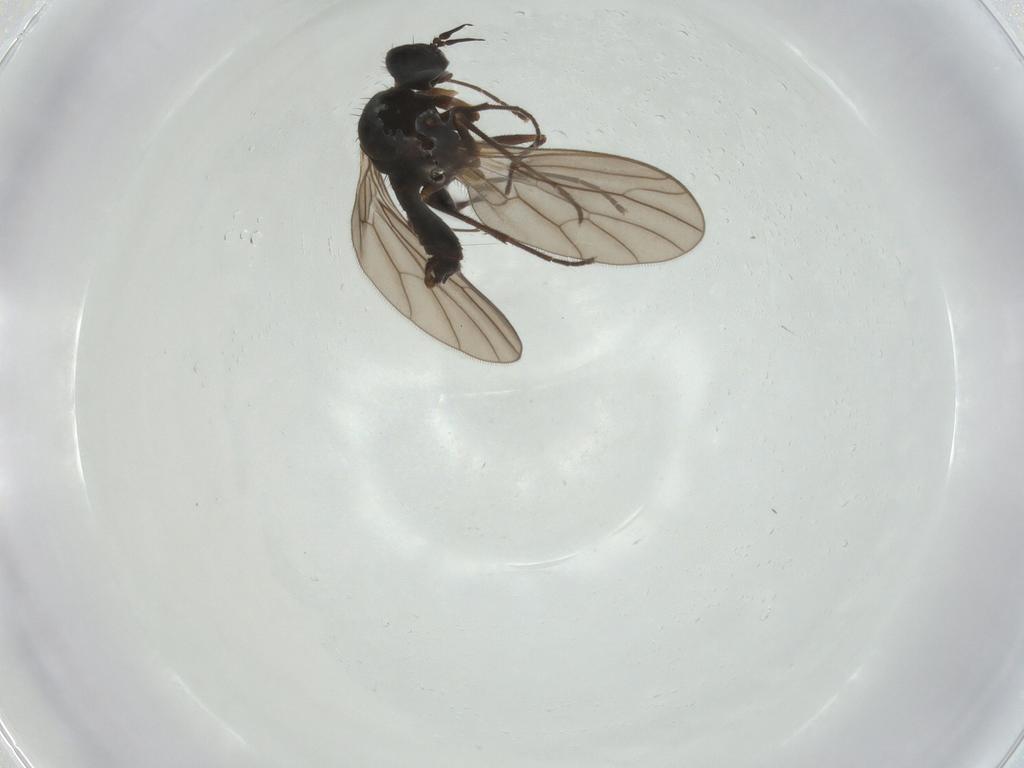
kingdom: Animalia
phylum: Arthropoda
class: Insecta
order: Diptera
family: Empididae
